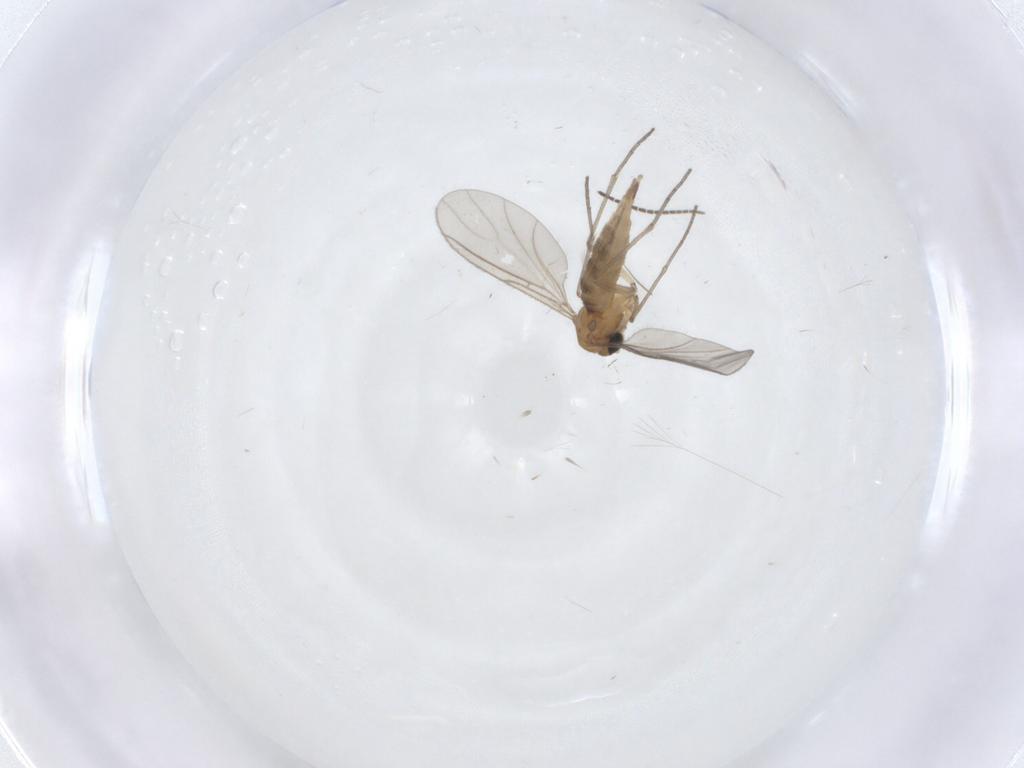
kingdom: Animalia
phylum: Arthropoda
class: Insecta
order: Diptera
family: Sciaridae
